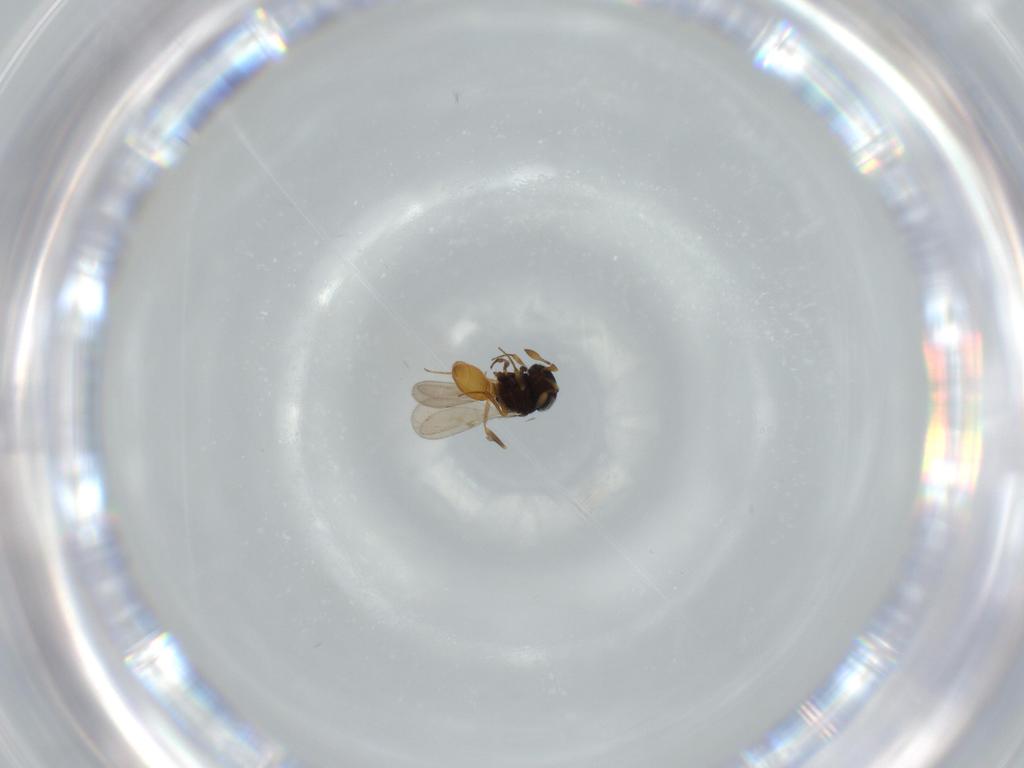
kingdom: Animalia
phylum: Arthropoda
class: Insecta
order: Hymenoptera
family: Scelionidae
